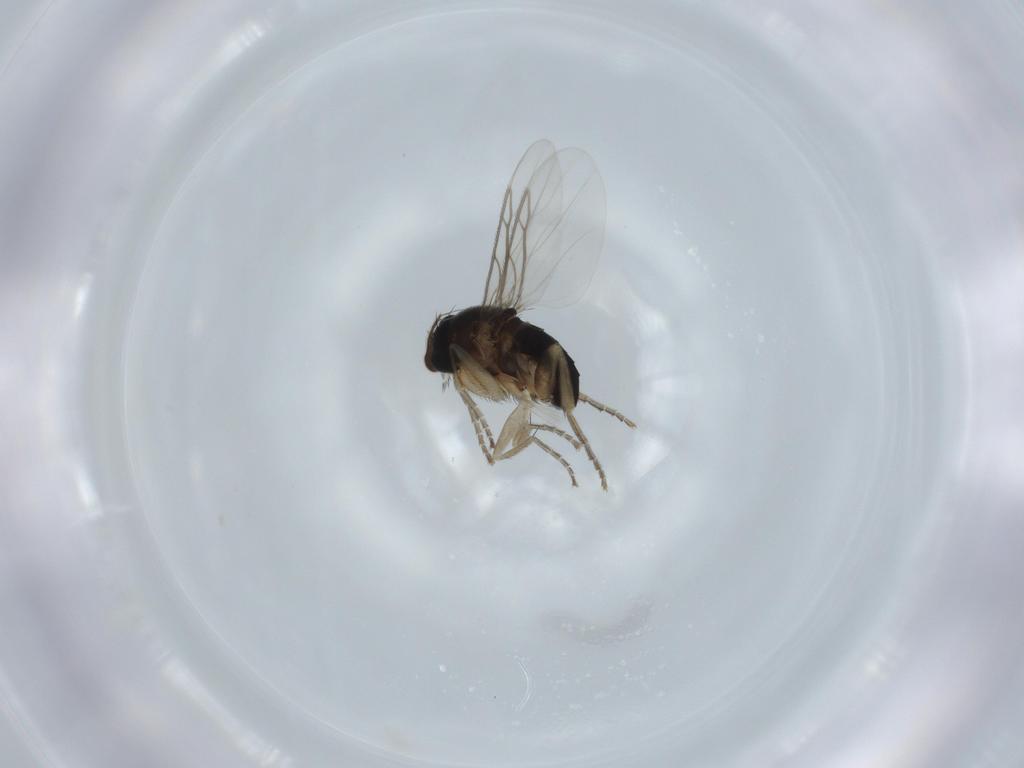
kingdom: Animalia
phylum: Arthropoda
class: Insecta
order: Diptera
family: Phoridae
